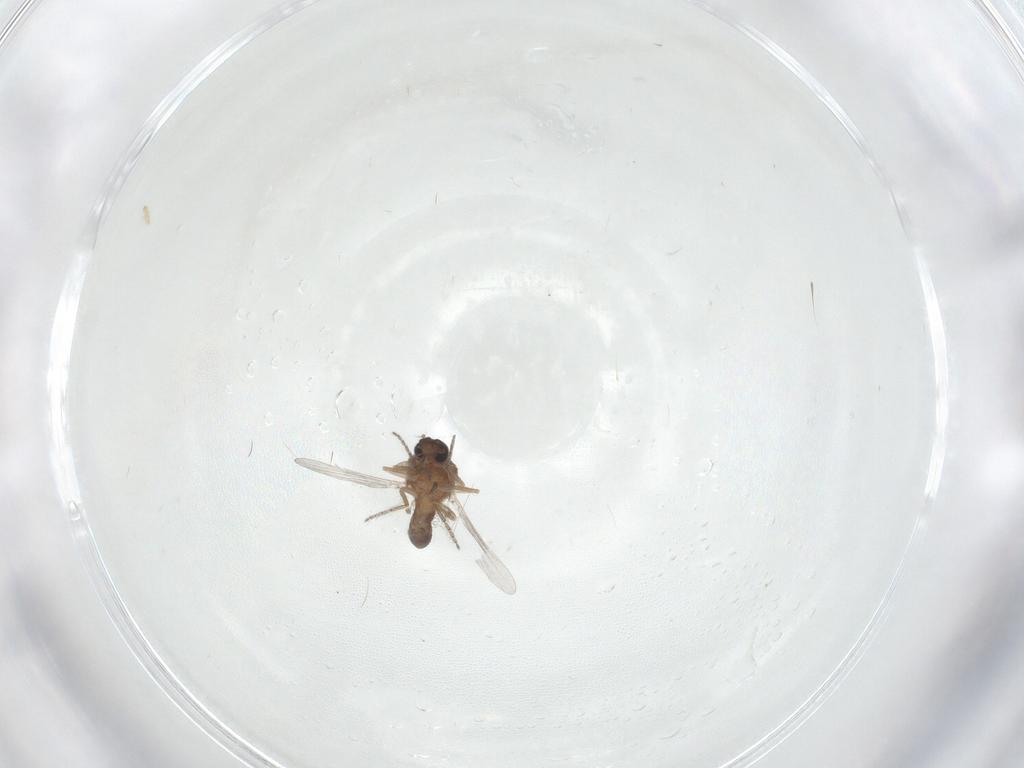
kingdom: Animalia
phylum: Arthropoda
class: Insecta
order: Diptera
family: Ceratopogonidae
